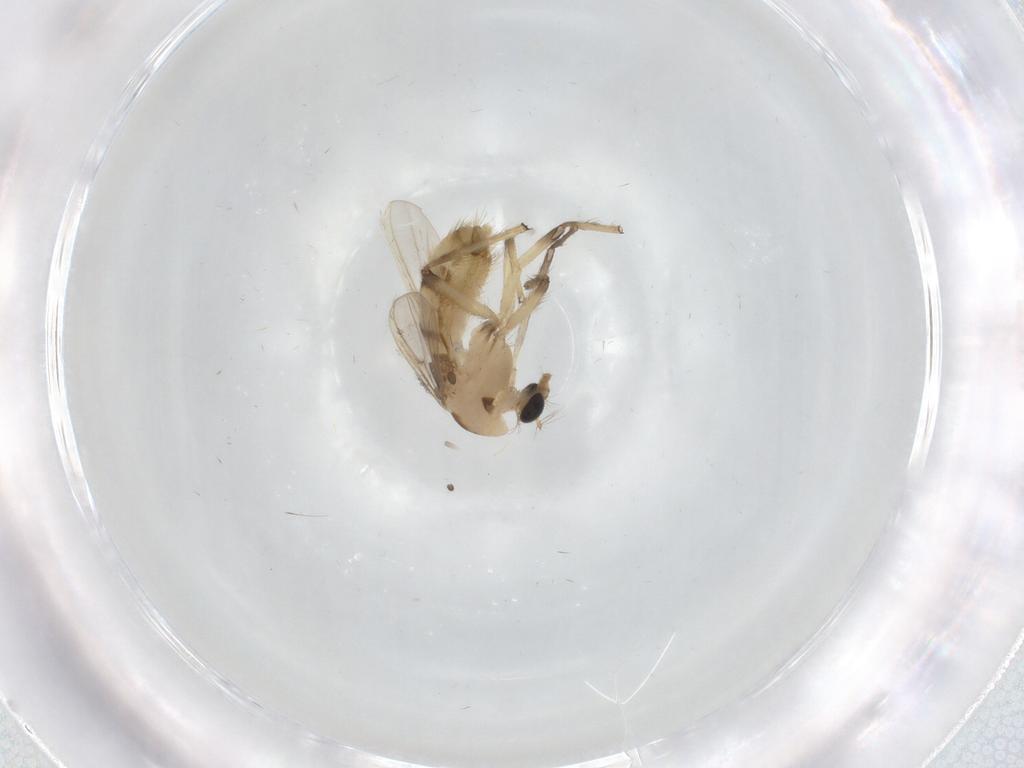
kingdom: Animalia
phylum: Arthropoda
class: Insecta
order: Diptera
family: Chironomidae
